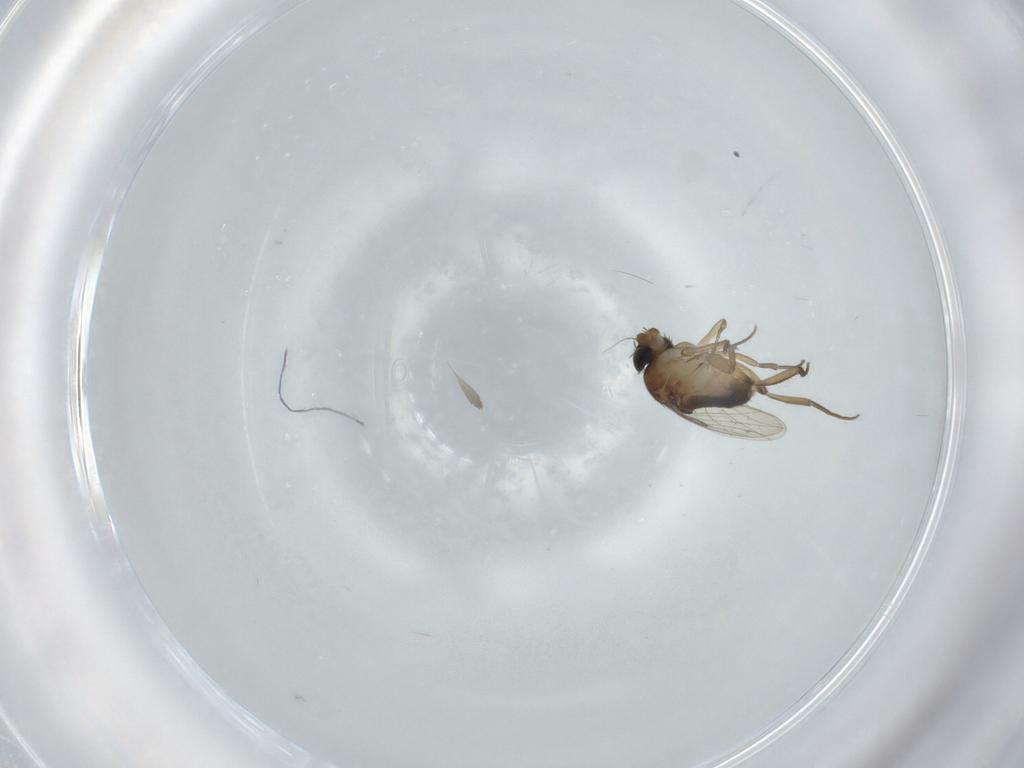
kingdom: Animalia
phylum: Arthropoda
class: Insecta
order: Diptera
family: Phoridae
